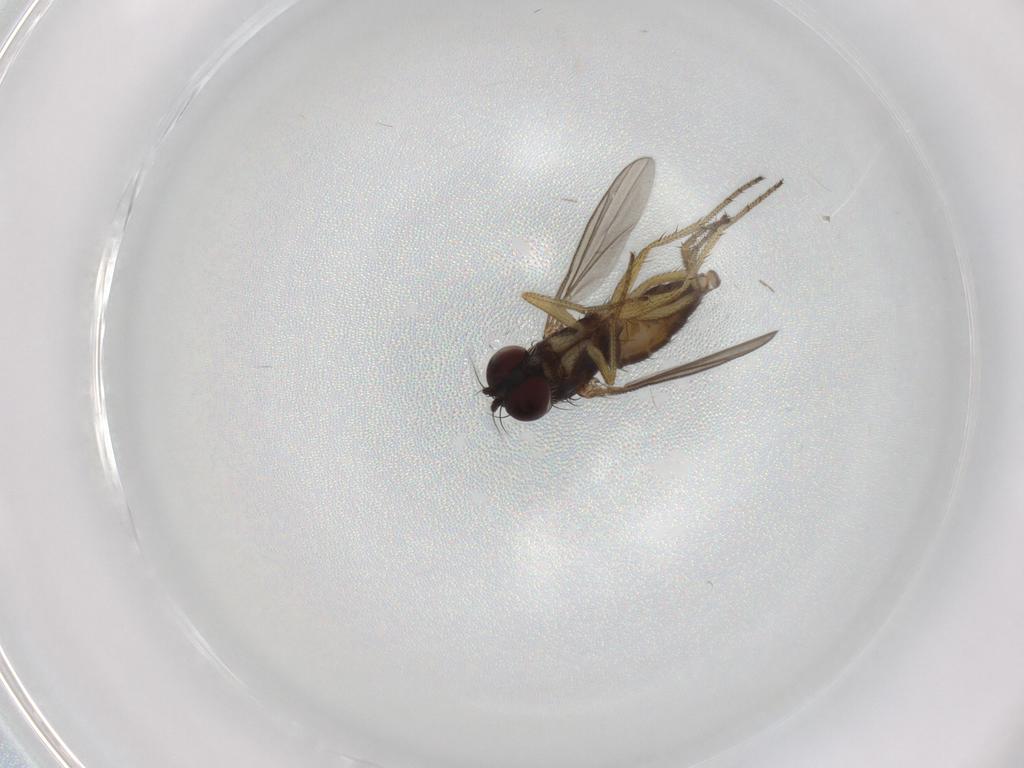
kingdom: Animalia
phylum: Arthropoda
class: Insecta
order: Diptera
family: Dolichopodidae
